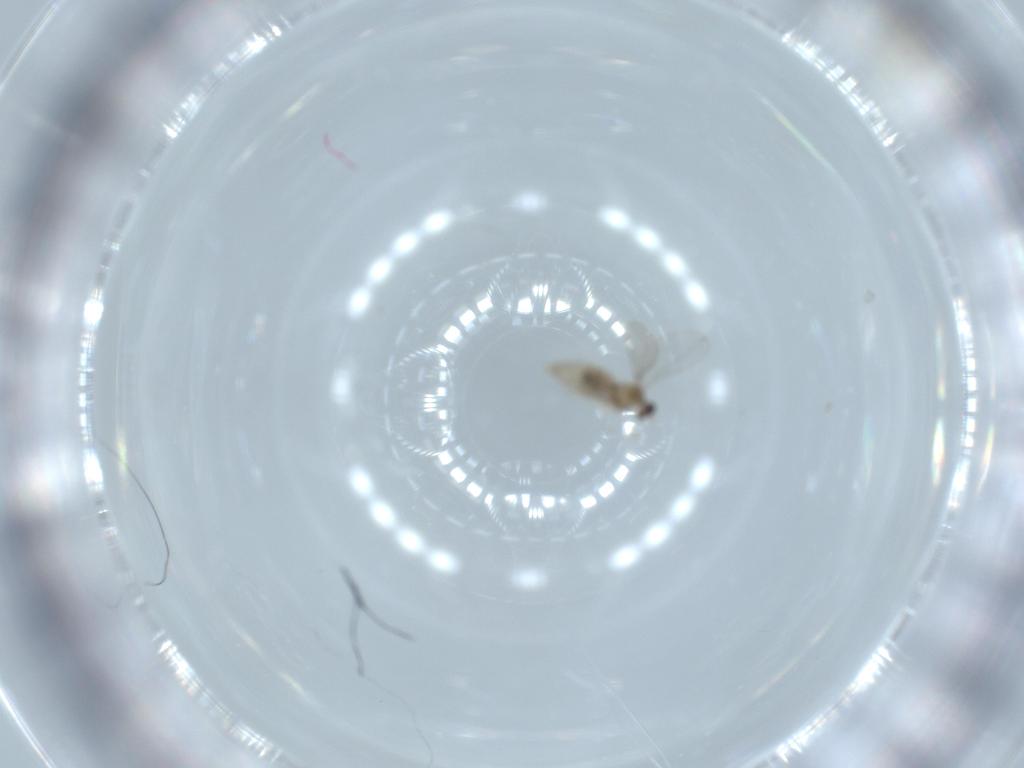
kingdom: Animalia
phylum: Arthropoda
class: Insecta
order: Diptera
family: Cecidomyiidae
